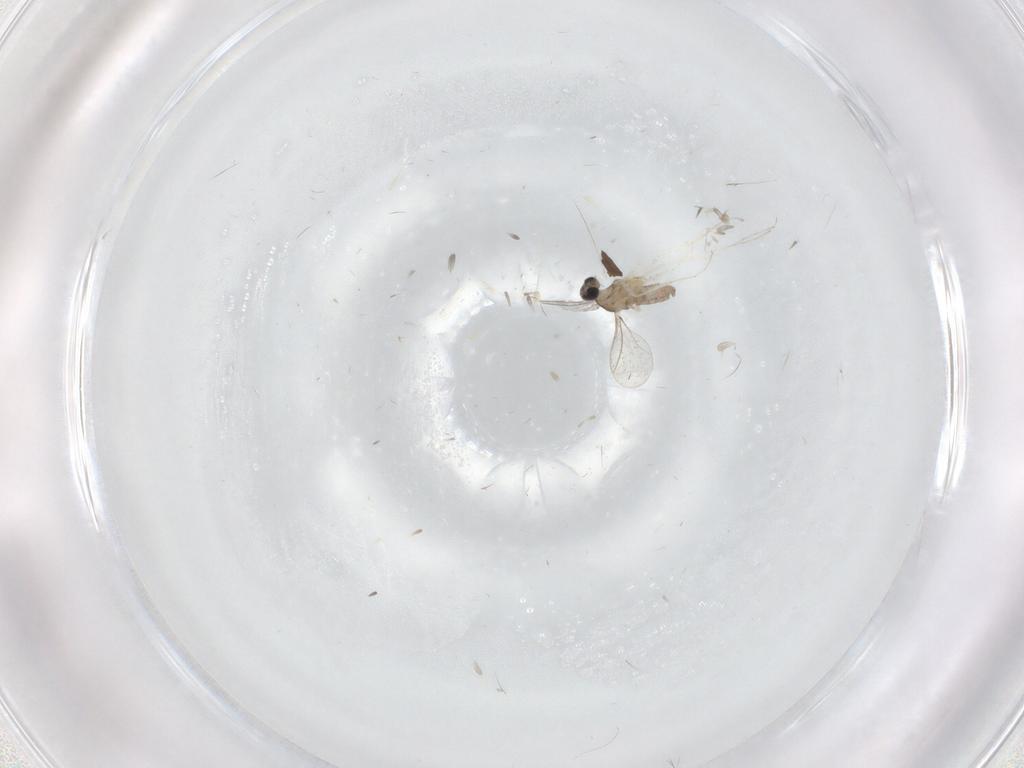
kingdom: Animalia
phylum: Arthropoda
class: Insecta
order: Diptera
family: Cecidomyiidae
